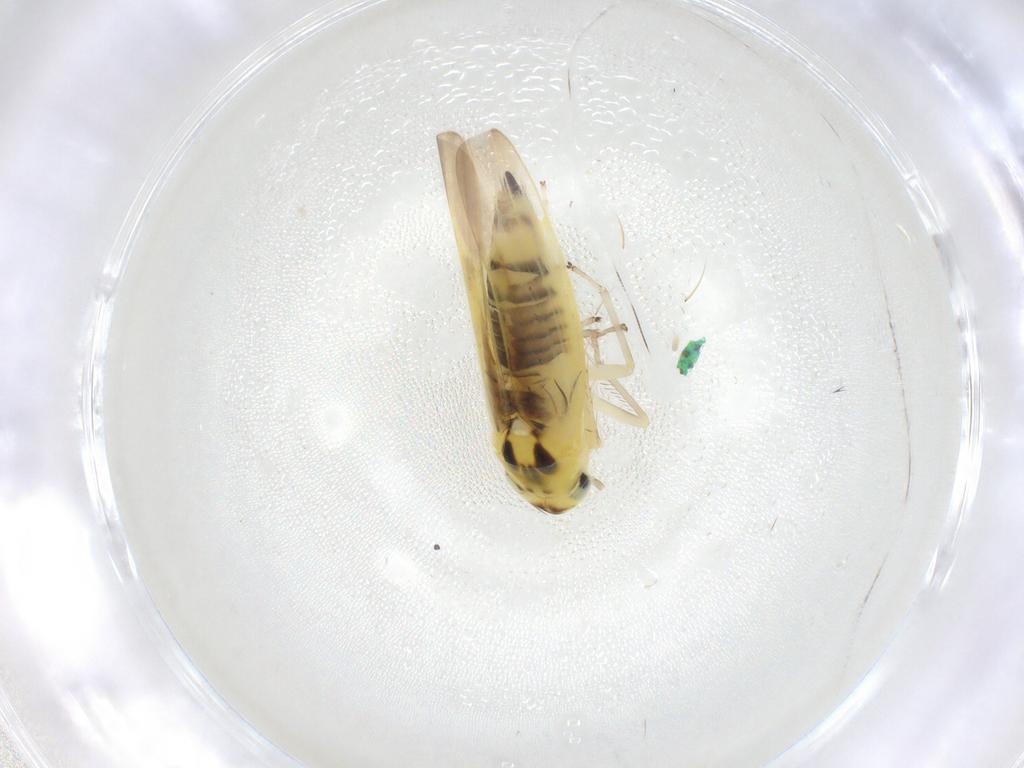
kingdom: Animalia
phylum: Arthropoda
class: Insecta
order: Hemiptera
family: Cicadellidae
